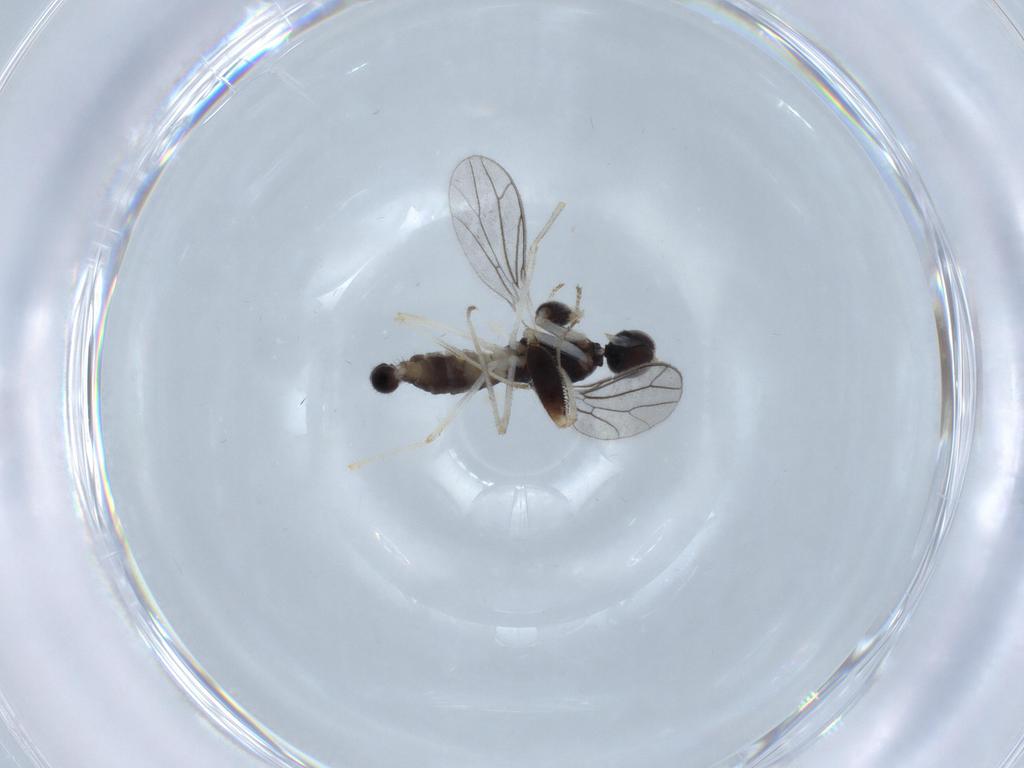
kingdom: Animalia
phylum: Arthropoda
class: Insecta
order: Diptera
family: Empididae
